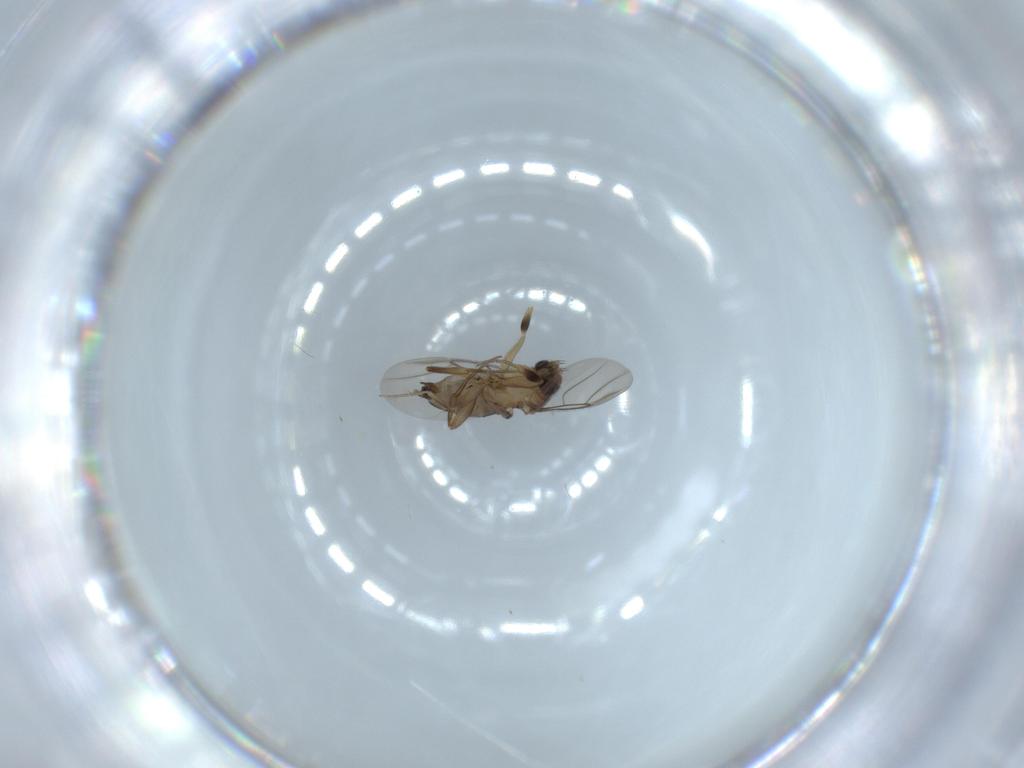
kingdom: Animalia
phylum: Arthropoda
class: Insecta
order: Diptera
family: Phoridae
